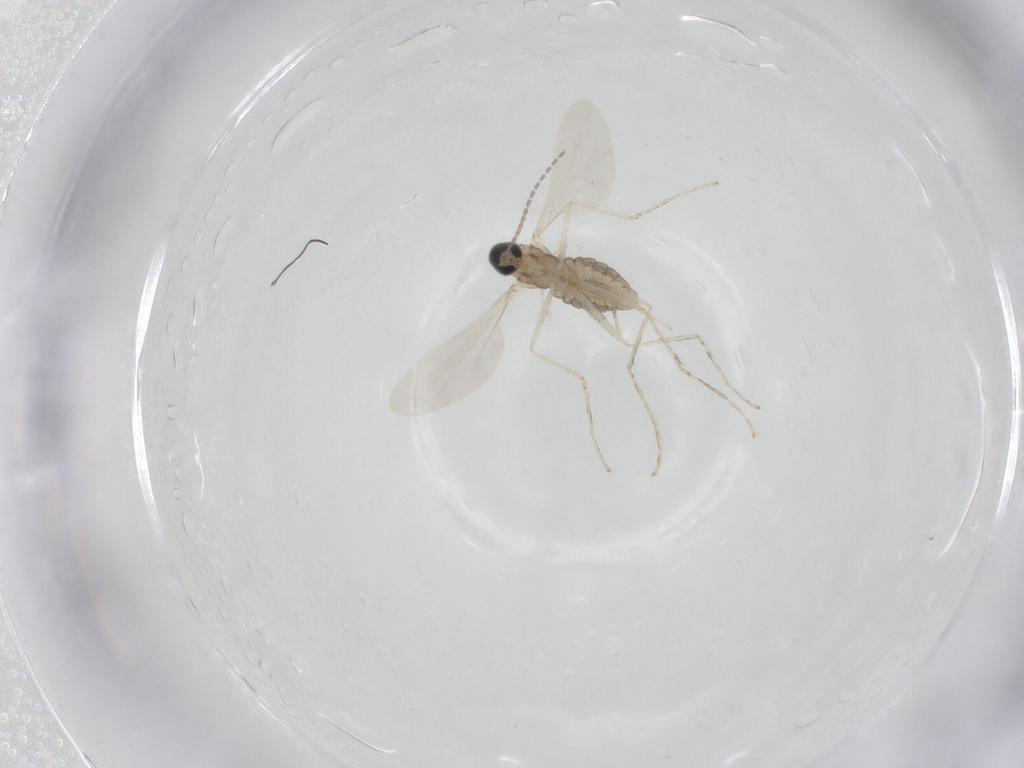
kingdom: Animalia
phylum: Arthropoda
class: Insecta
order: Diptera
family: Cecidomyiidae
